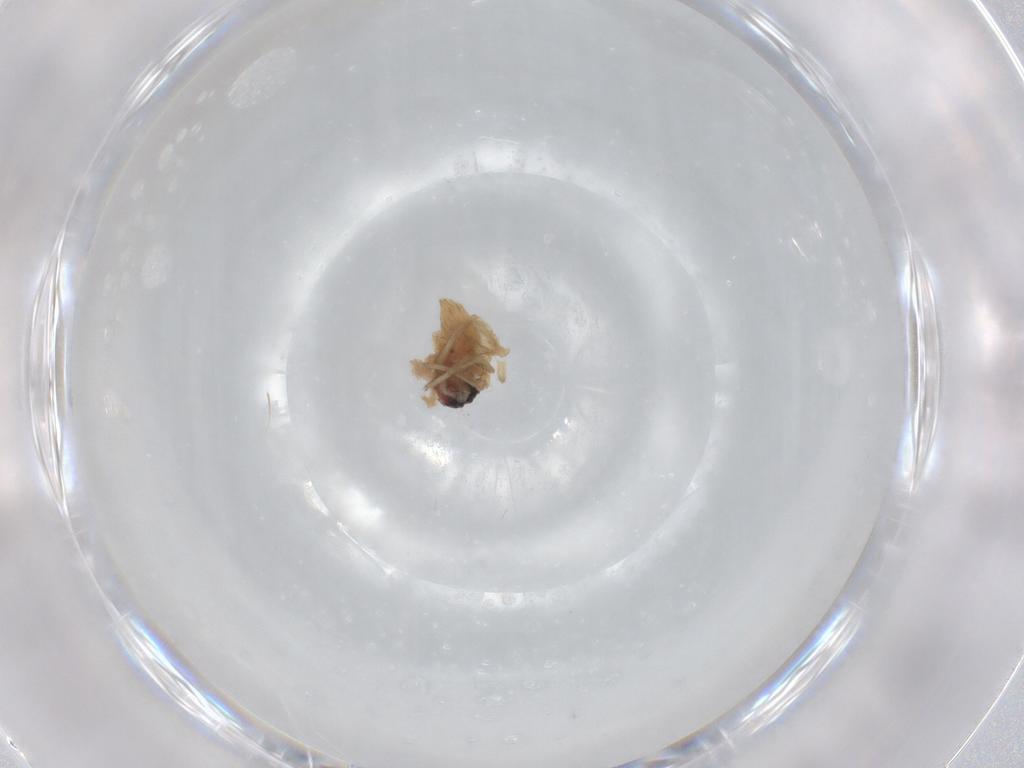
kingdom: Animalia
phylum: Arthropoda
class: Arachnida
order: Araneae
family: Lycosidae
